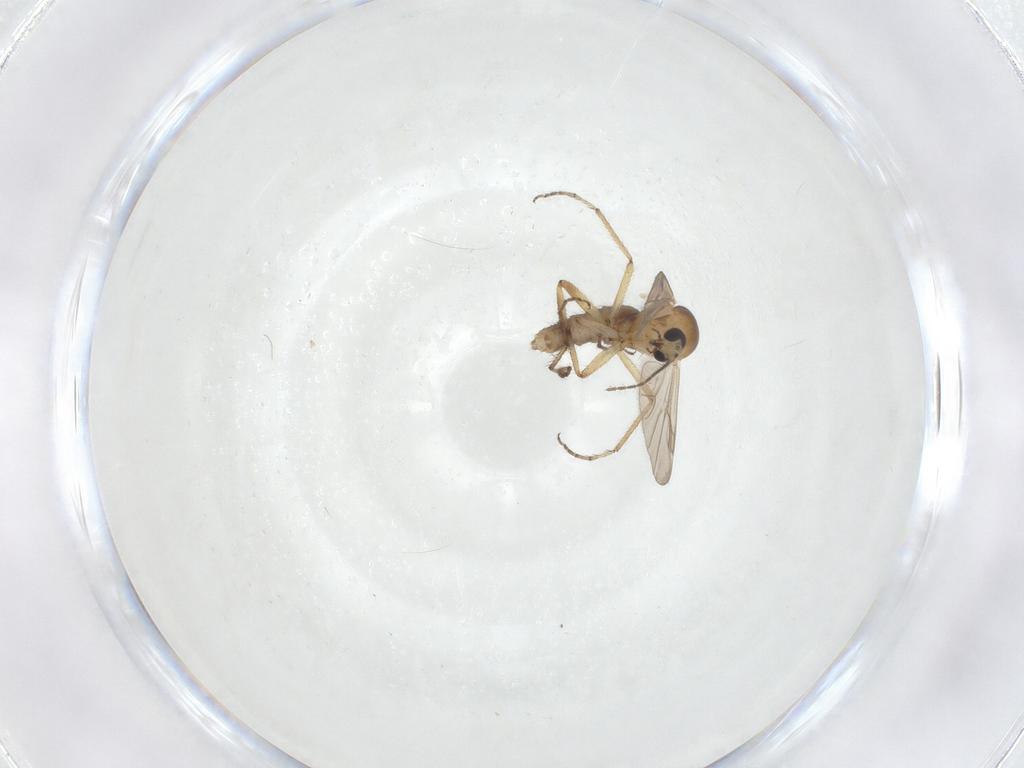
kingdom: Animalia
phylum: Arthropoda
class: Insecta
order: Diptera
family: Ceratopogonidae
